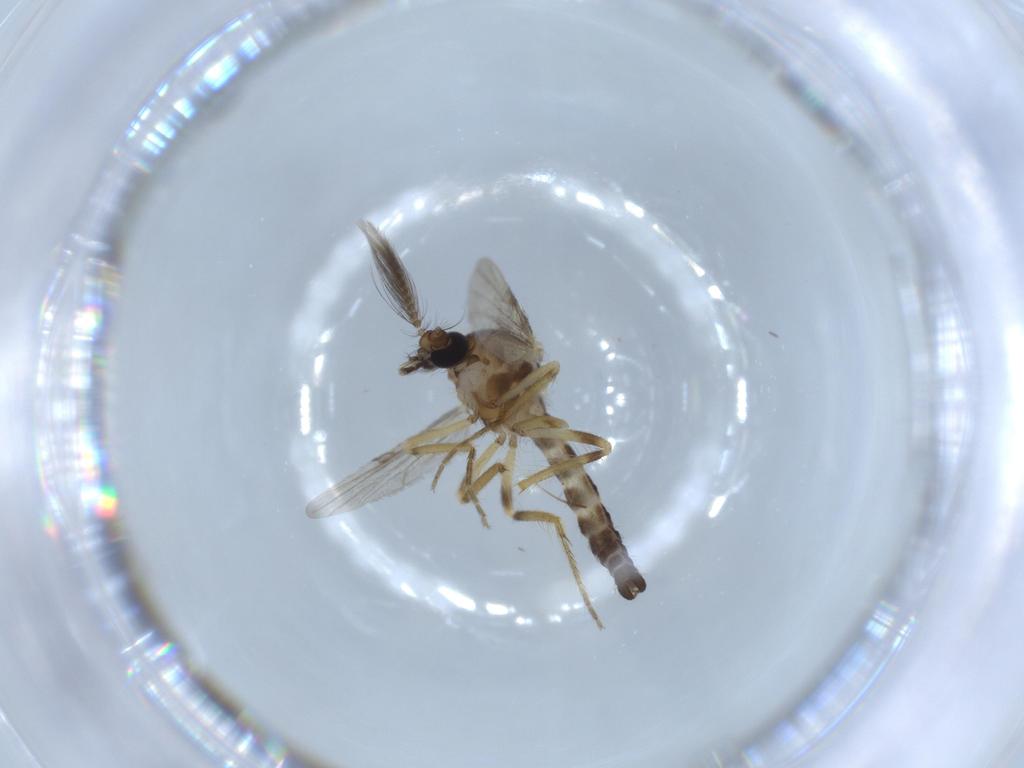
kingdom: Animalia
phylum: Arthropoda
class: Insecta
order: Diptera
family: Ceratopogonidae
